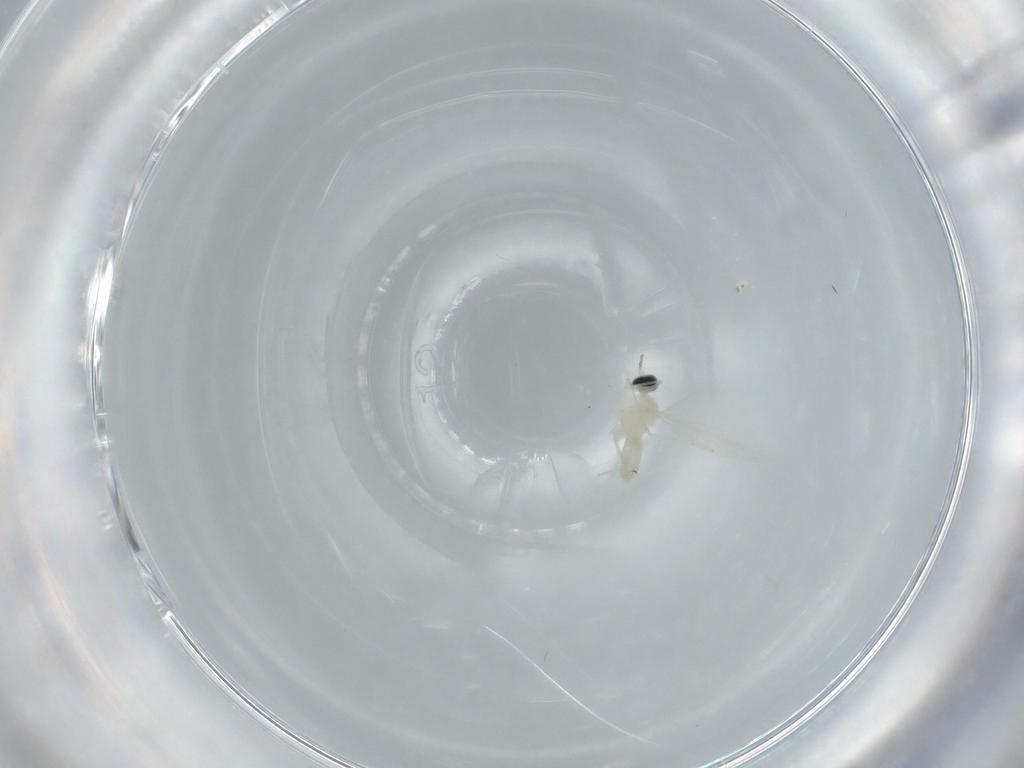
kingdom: Animalia
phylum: Arthropoda
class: Insecta
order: Diptera
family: Cecidomyiidae
